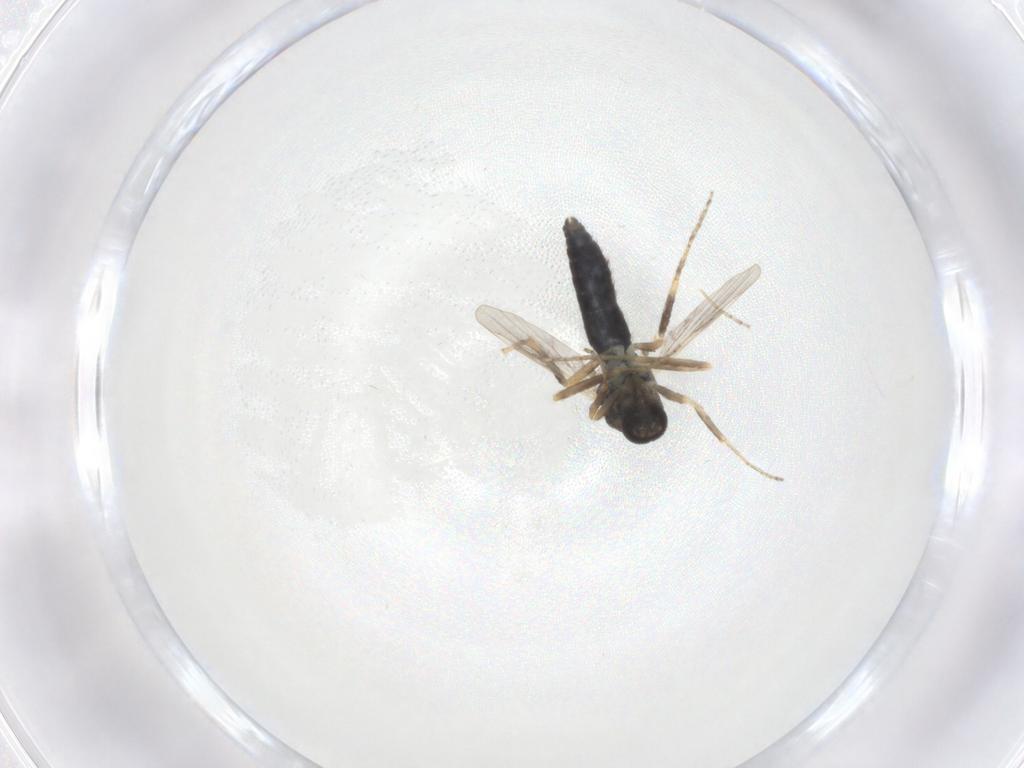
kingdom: Animalia
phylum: Arthropoda
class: Insecta
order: Diptera
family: Ceratopogonidae
